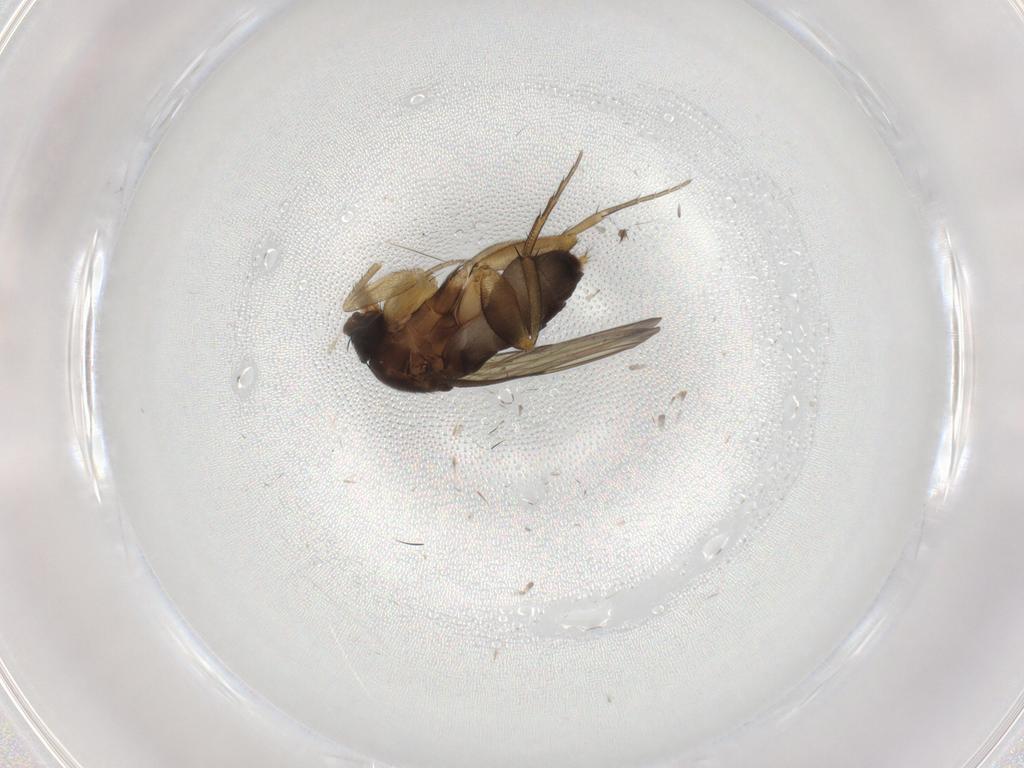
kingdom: Animalia
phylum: Arthropoda
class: Insecta
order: Diptera
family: Phoridae
